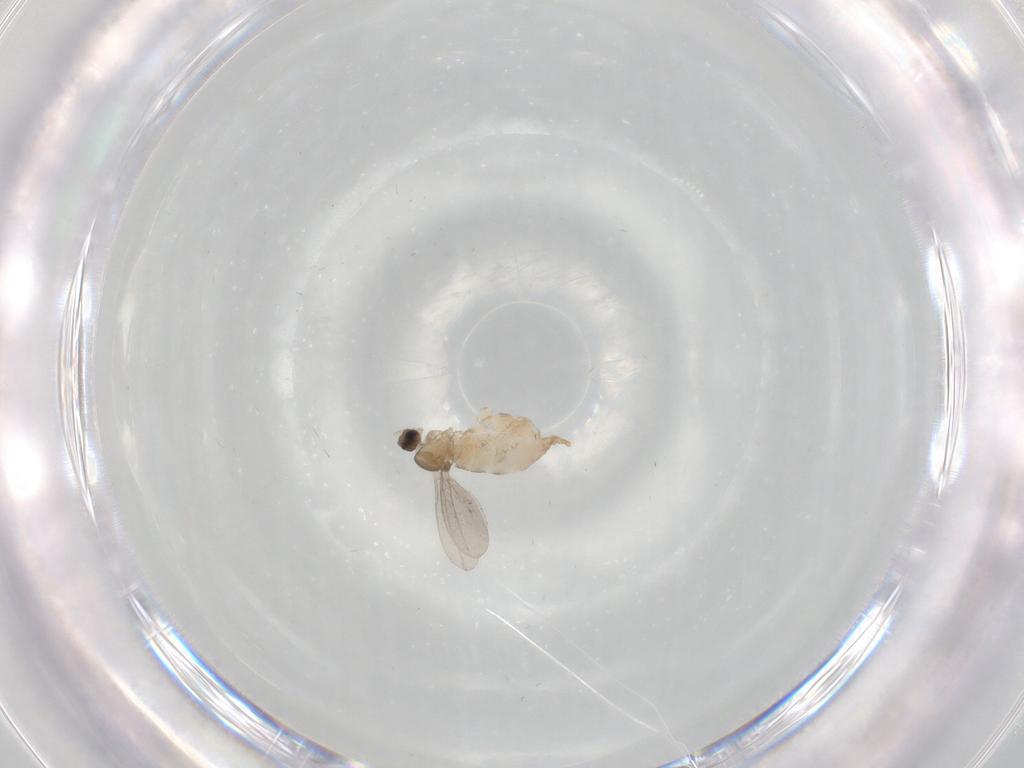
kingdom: Animalia
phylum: Arthropoda
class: Insecta
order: Diptera
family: Cecidomyiidae
